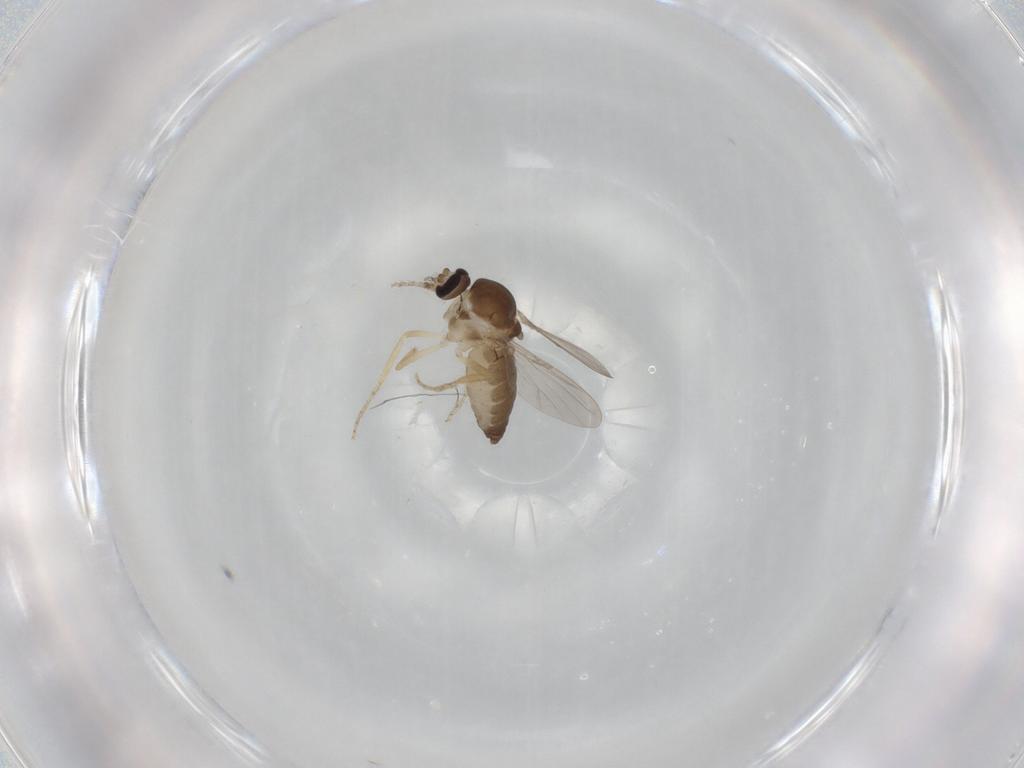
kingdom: Animalia
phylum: Arthropoda
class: Insecta
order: Diptera
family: Ceratopogonidae
